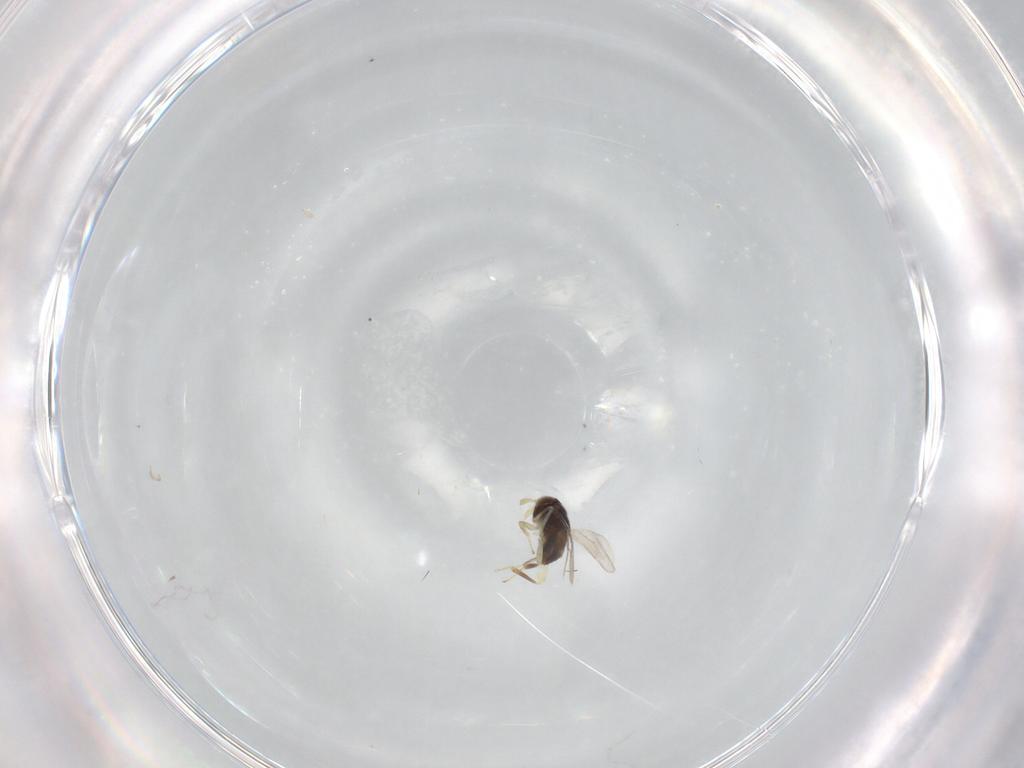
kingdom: Animalia
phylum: Arthropoda
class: Insecta
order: Hymenoptera
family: Aphelinidae
